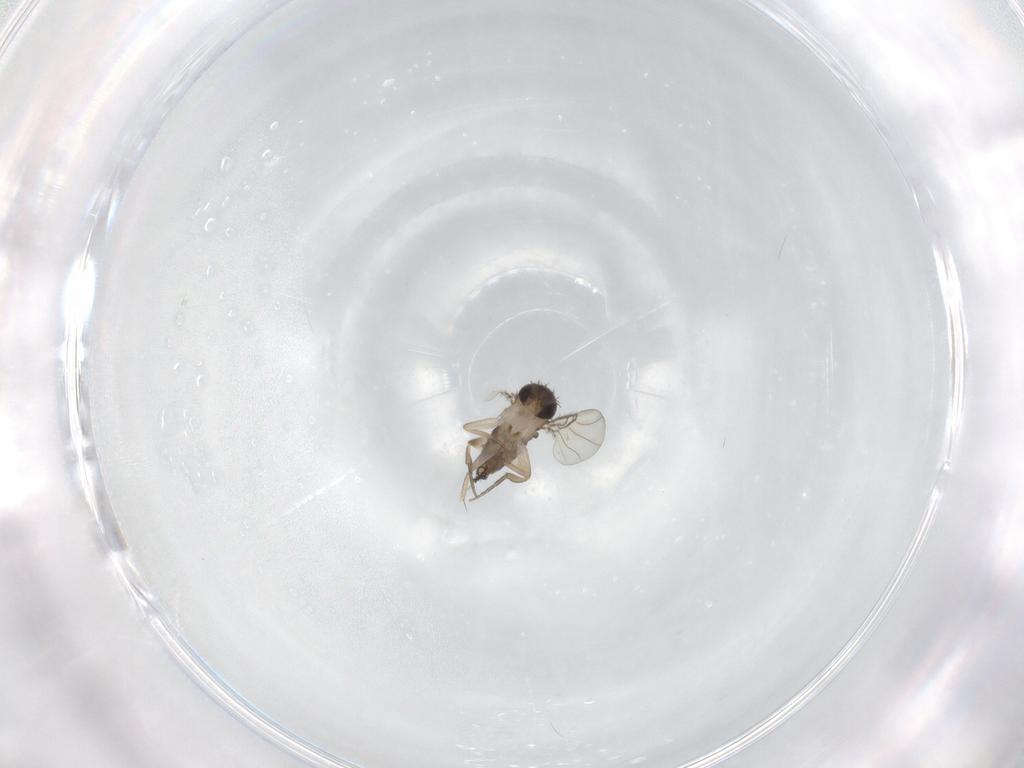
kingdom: Animalia
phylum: Arthropoda
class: Insecta
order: Diptera
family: Phoridae
